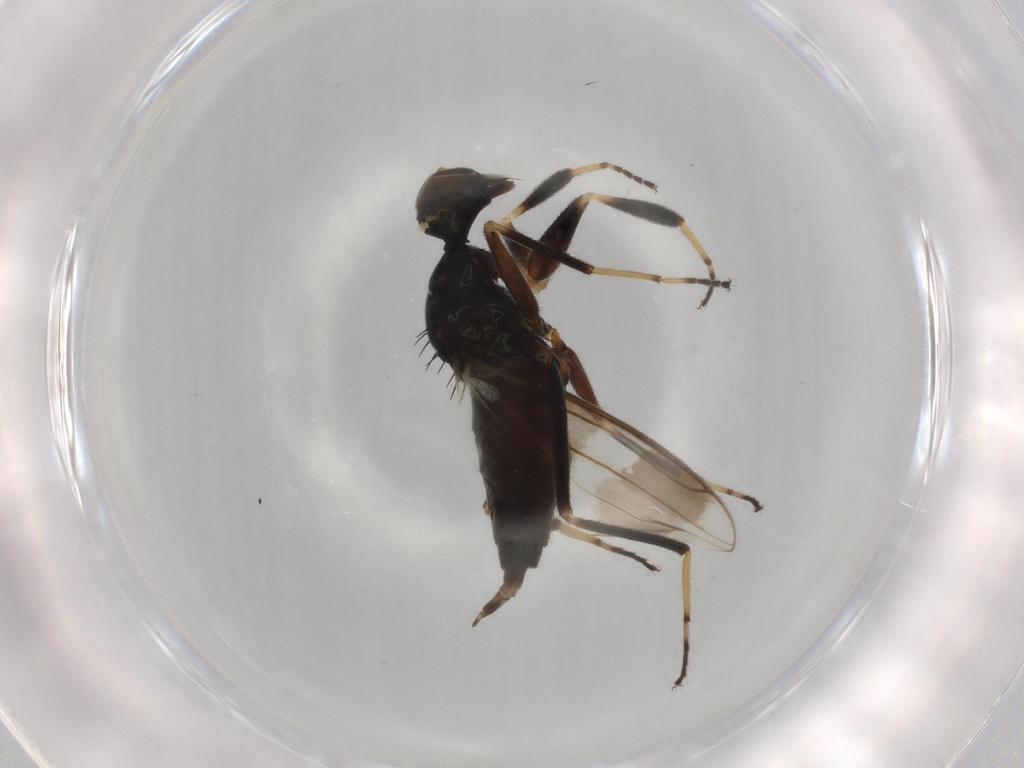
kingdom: Animalia
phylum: Arthropoda
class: Insecta
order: Diptera
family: Hybotidae
